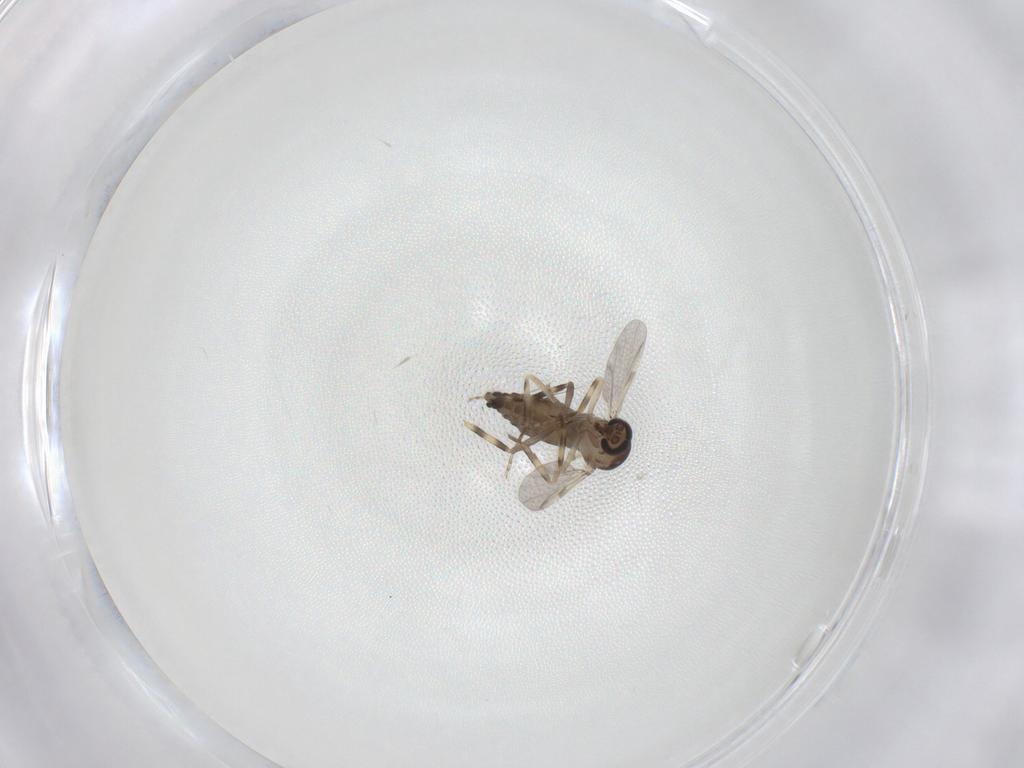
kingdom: Animalia
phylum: Arthropoda
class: Insecta
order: Diptera
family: Ceratopogonidae
